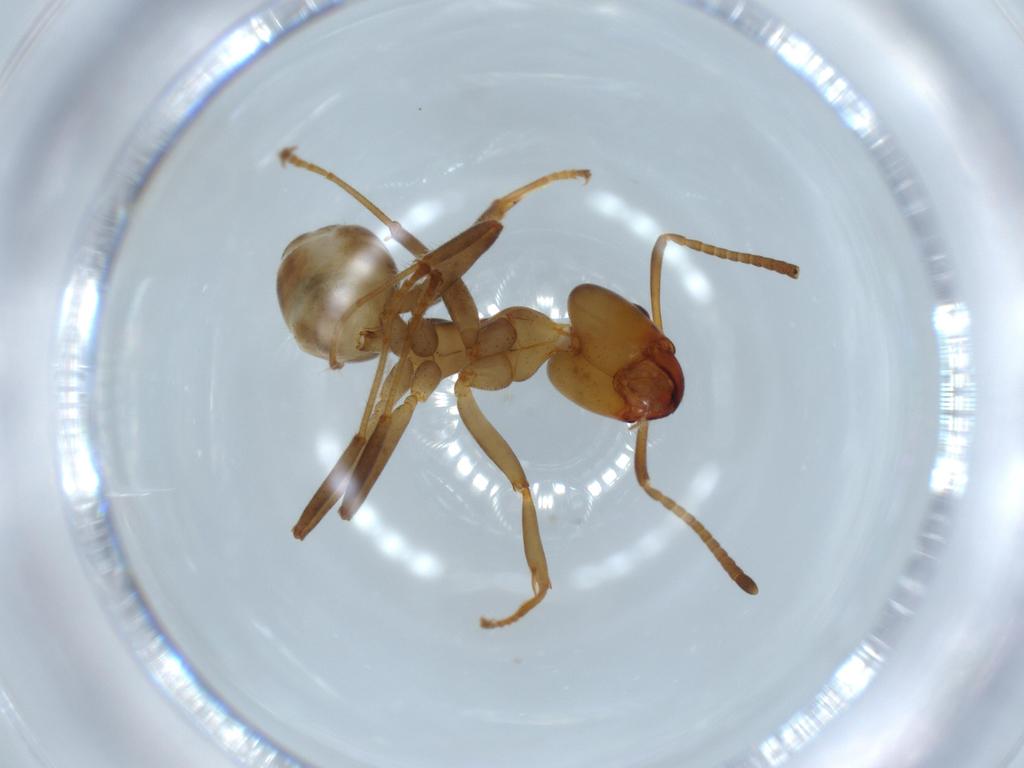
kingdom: Animalia
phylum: Arthropoda
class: Insecta
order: Hymenoptera
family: Formicidae
